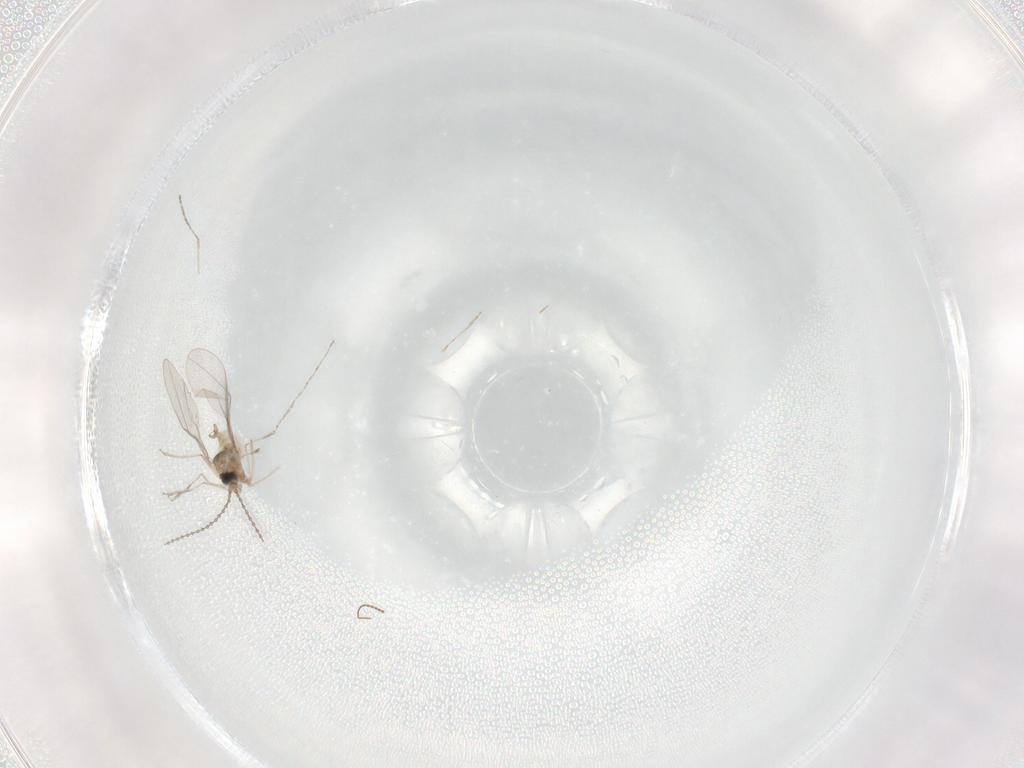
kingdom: Animalia
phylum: Arthropoda
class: Insecta
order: Diptera
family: Cecidomyiidae
